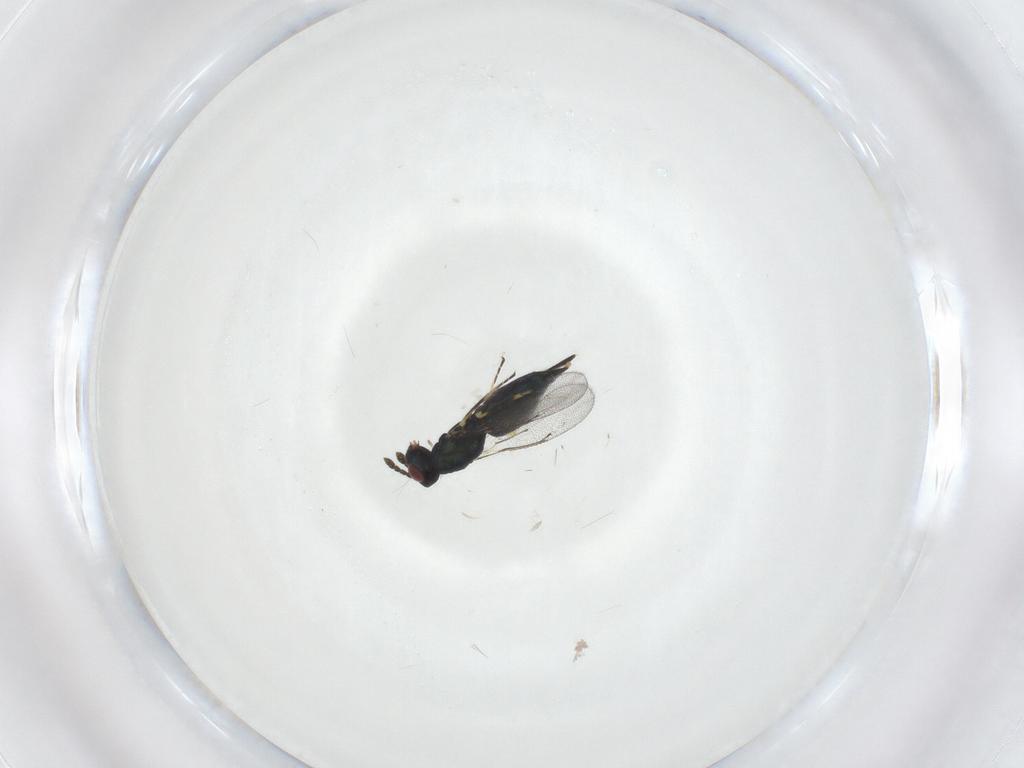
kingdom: Animalia
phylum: Arthropoda
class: Insecta
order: Hymenoptera
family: Eulophidae
